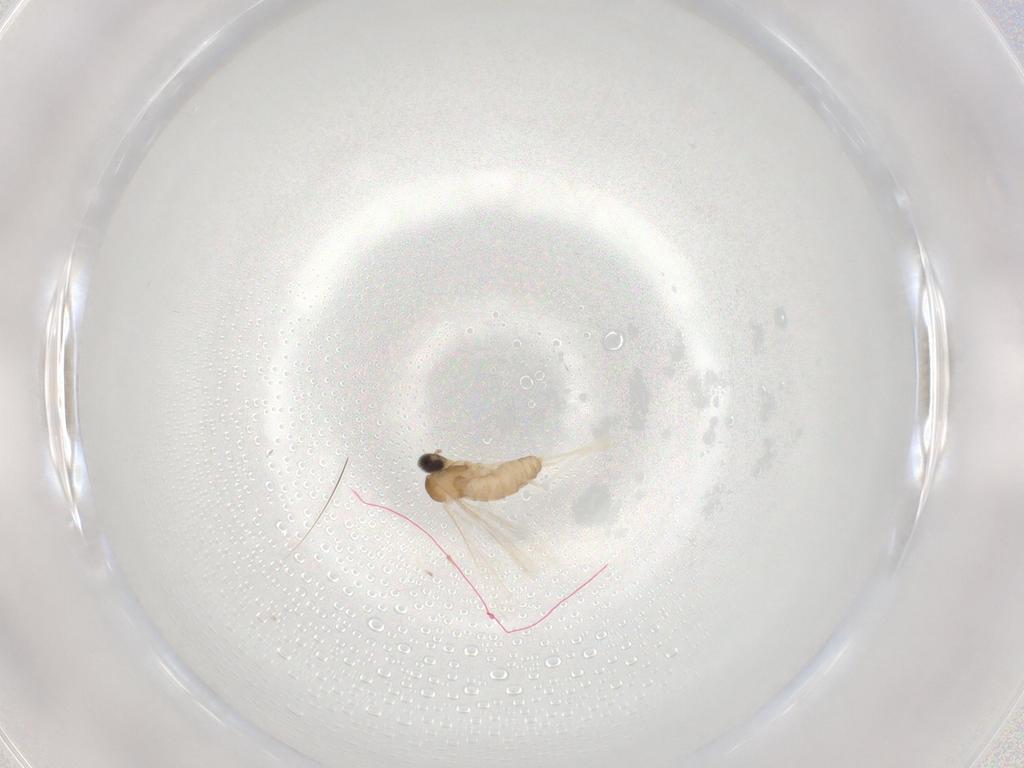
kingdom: Animalia
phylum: Arthropoda
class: Insecta
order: Diptera
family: Cecidomyiidae
